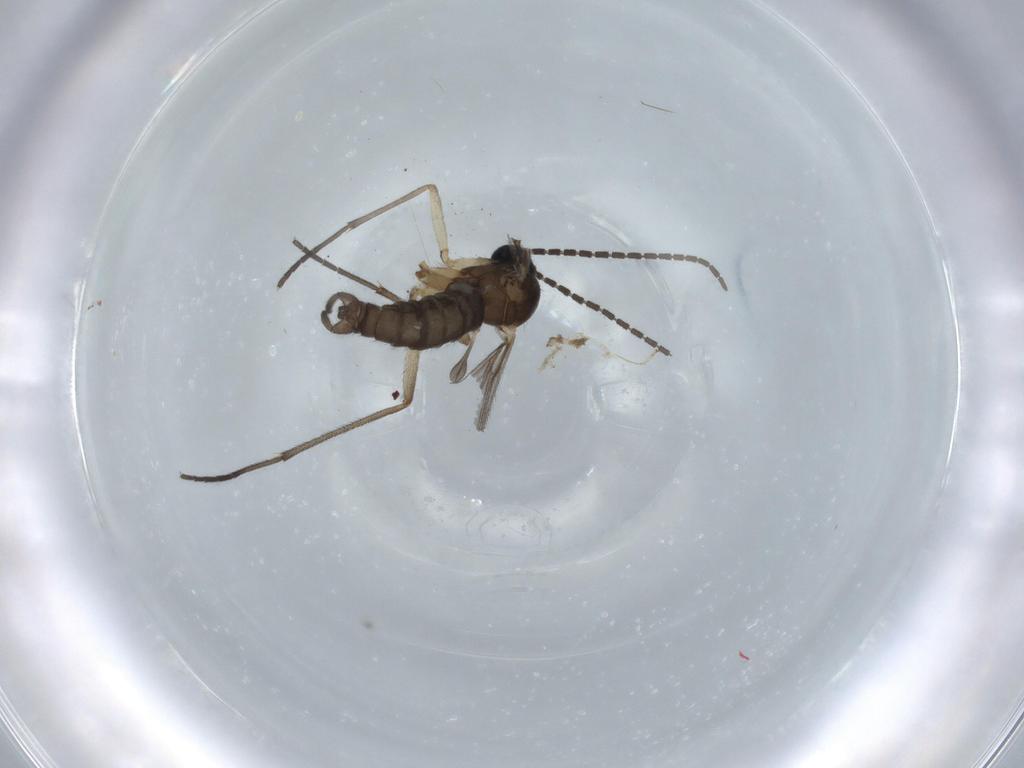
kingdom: Animalia
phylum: Arthropoda
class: Insecta
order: Diptera
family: Sciaridae
